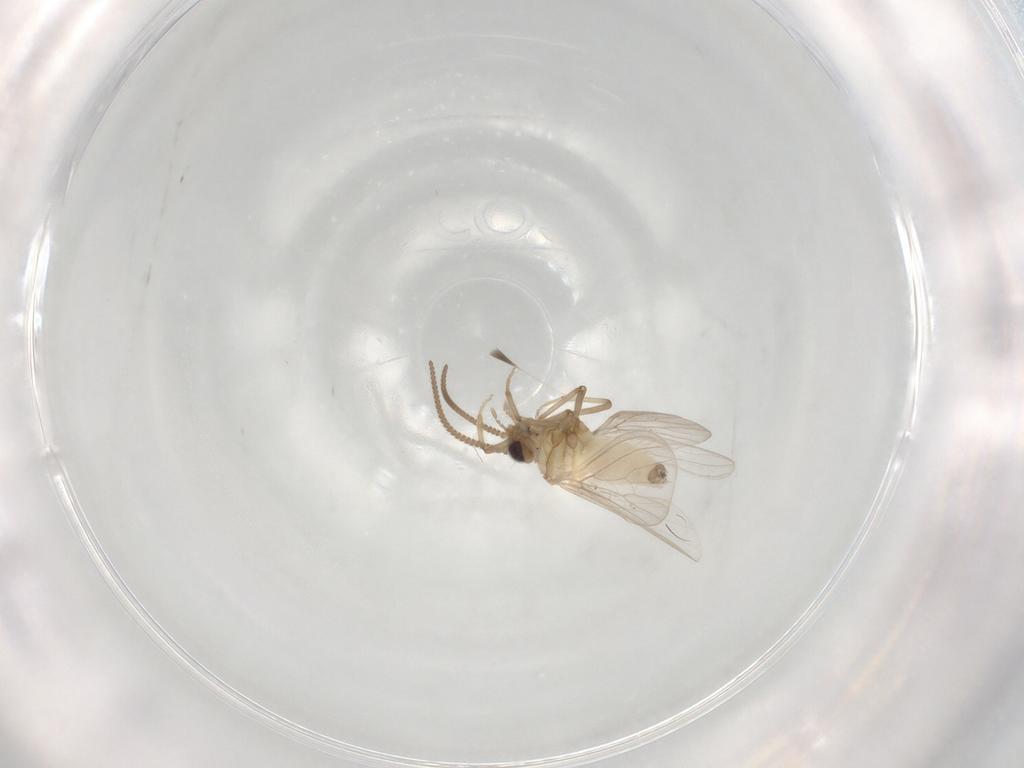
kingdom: Animalia
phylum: Arthropoda
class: Insecta
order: Neuroptera
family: Coniopterygidae
